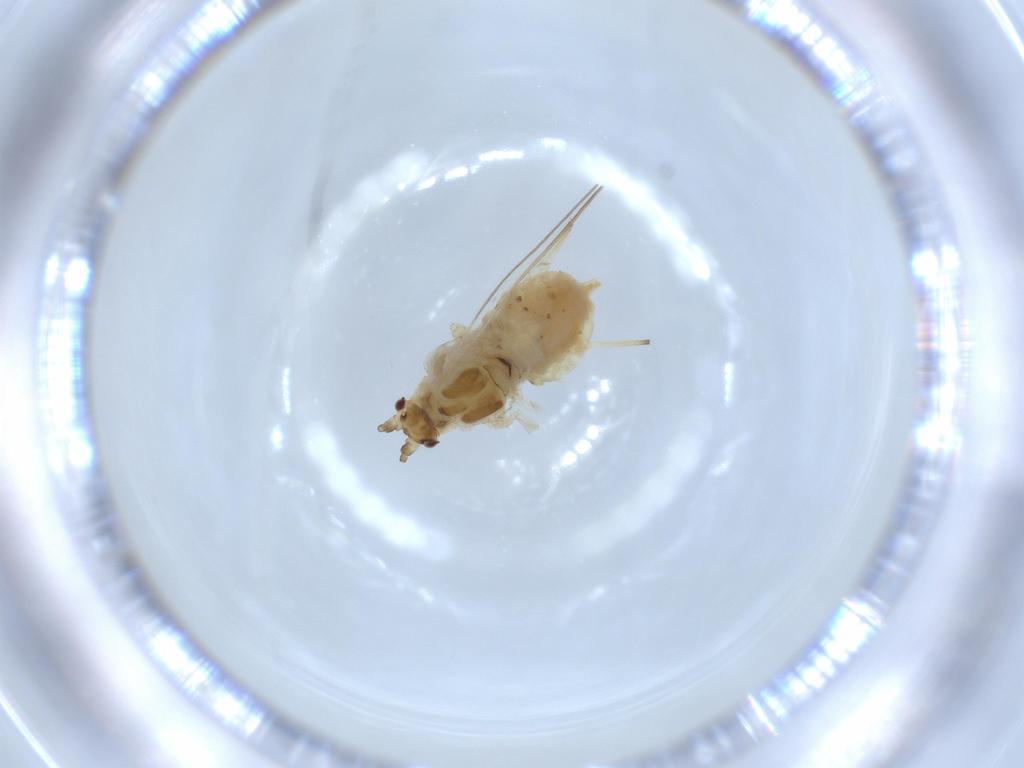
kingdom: Animalia
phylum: Arthropoda
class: Insecta
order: Hemiptera
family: Aphididae
